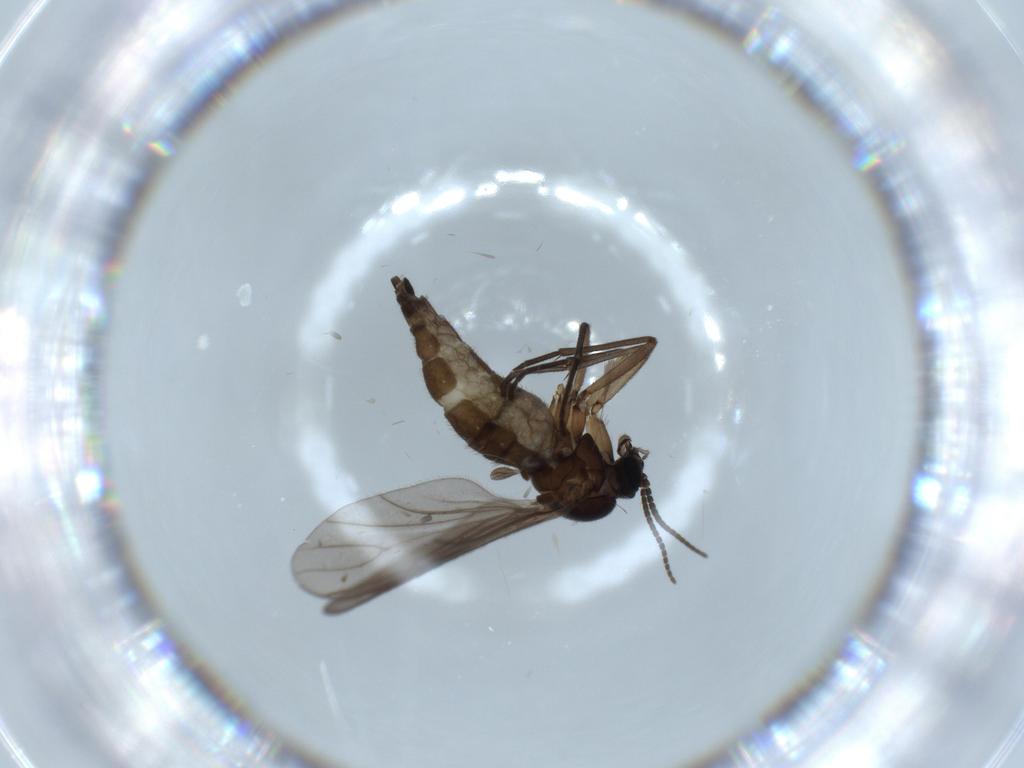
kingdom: Animalia
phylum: Arthropoda
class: Insecta
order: Diptera
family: Sciaridae
